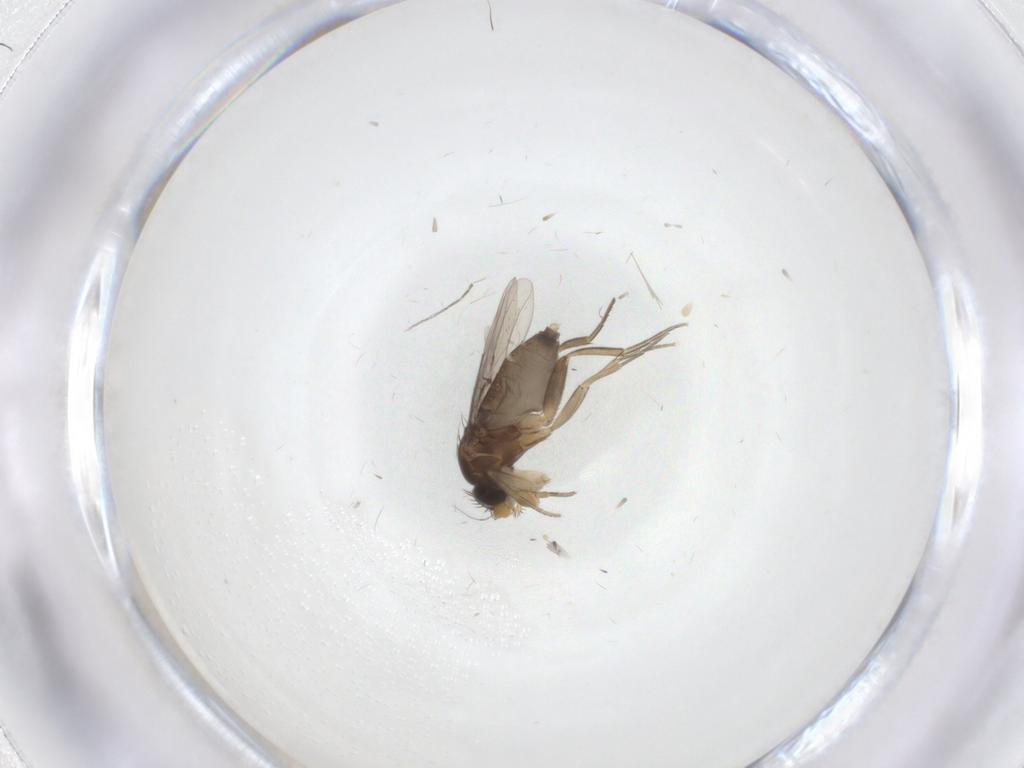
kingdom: Animalia
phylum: Arthropoda
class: Insecta
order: Diptera
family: Phoridae
